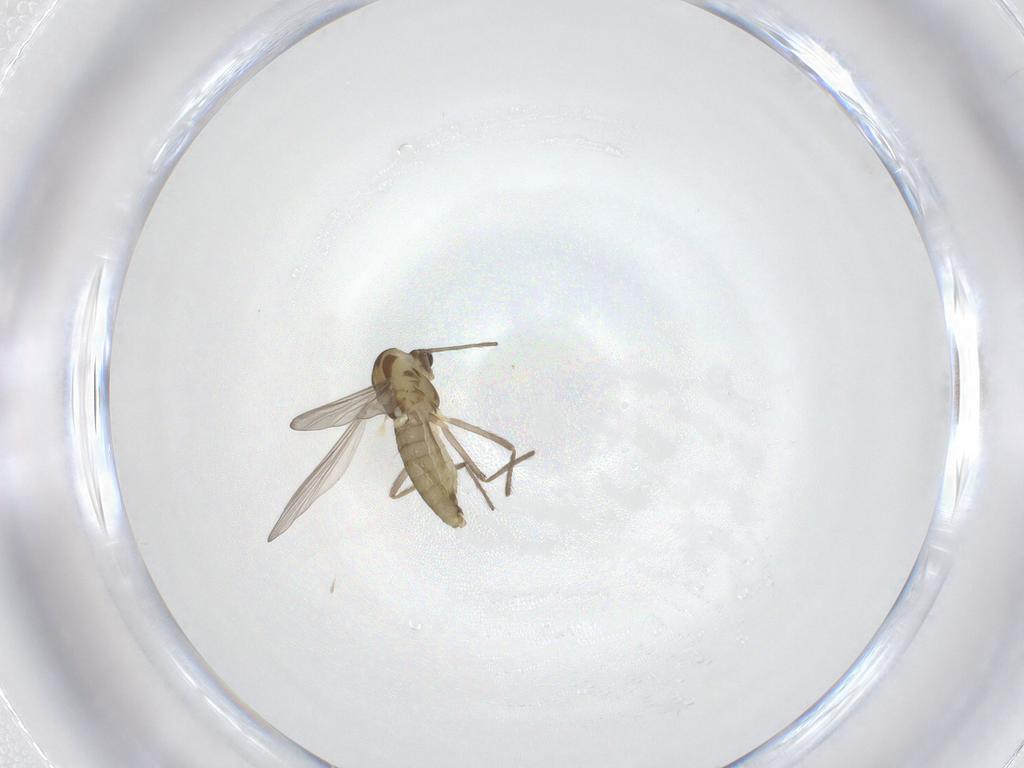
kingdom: Animalia
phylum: Arthropoda
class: Insecta
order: Diptera
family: Chironomidae
